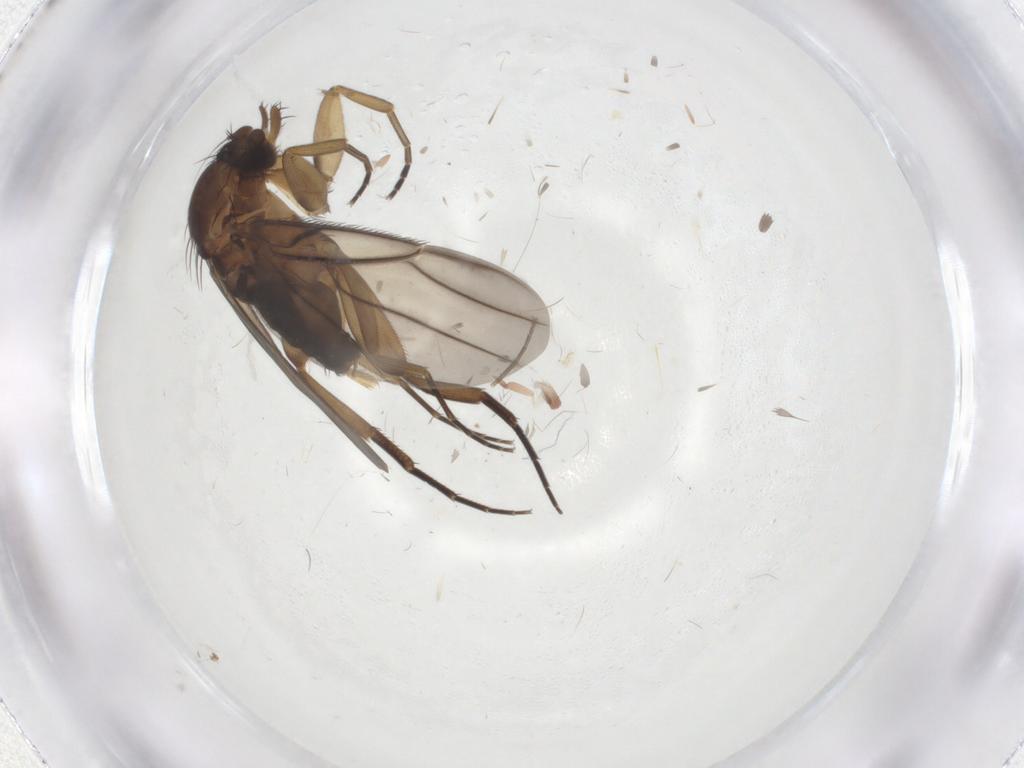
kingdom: Animalia
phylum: Arthropoda
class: Insecta
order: Diptera
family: Phoridae
